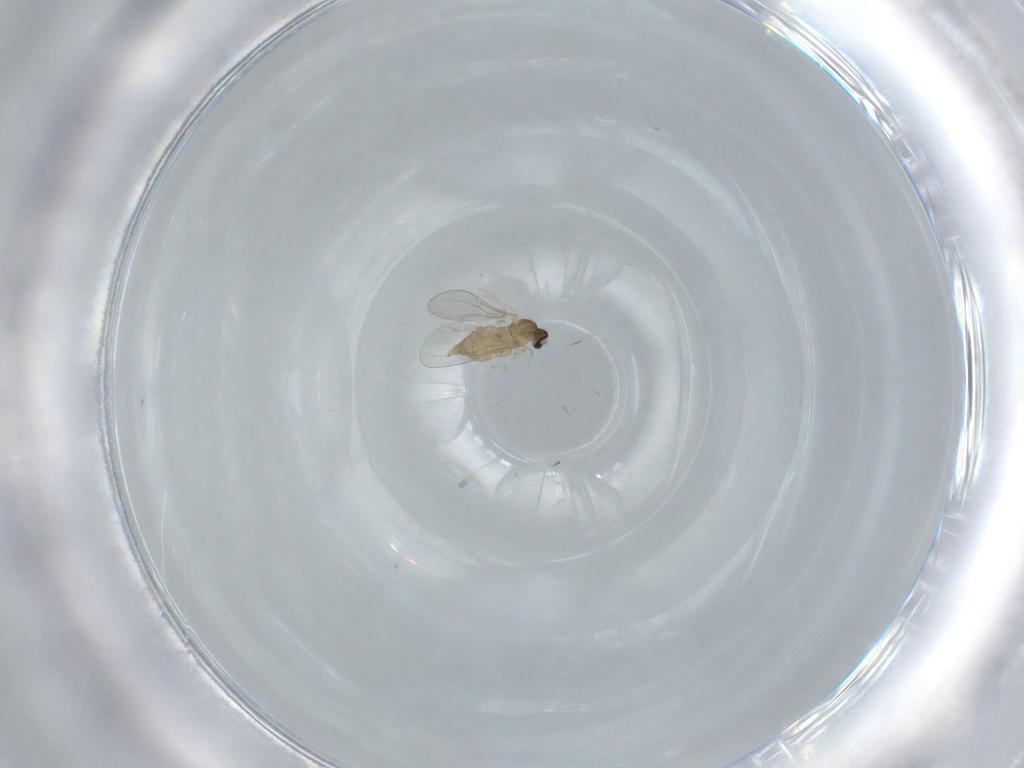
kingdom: Animalia
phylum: Arthropoda
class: Insecta
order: Diptera
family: Cecidomyiidae
